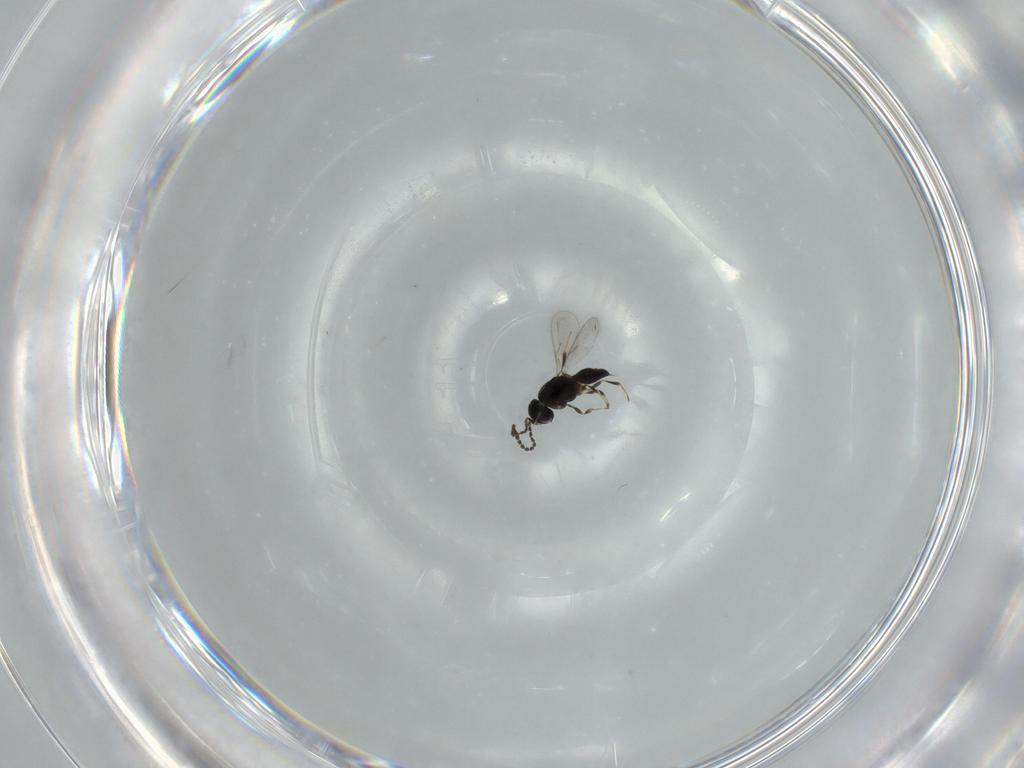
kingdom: Animalia
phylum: Arthropoda
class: Insecta
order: Hymenoptera
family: Scelionidae
